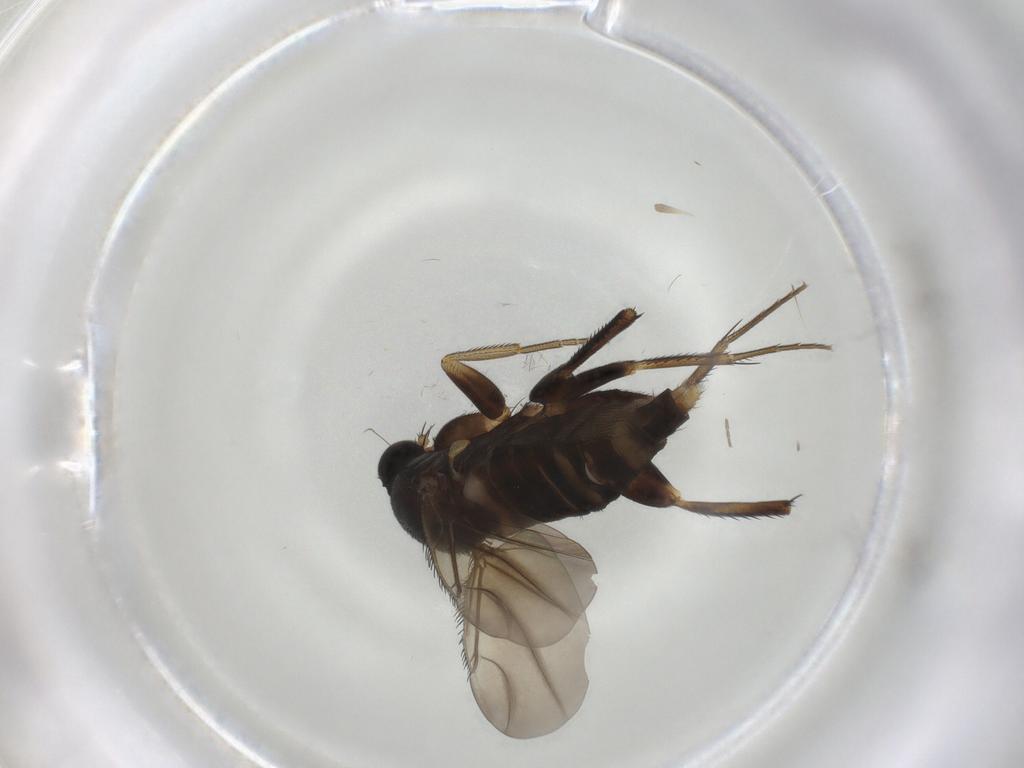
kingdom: Animalia
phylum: Arthropoda
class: Insecta
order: Diptera
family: Phoridae
